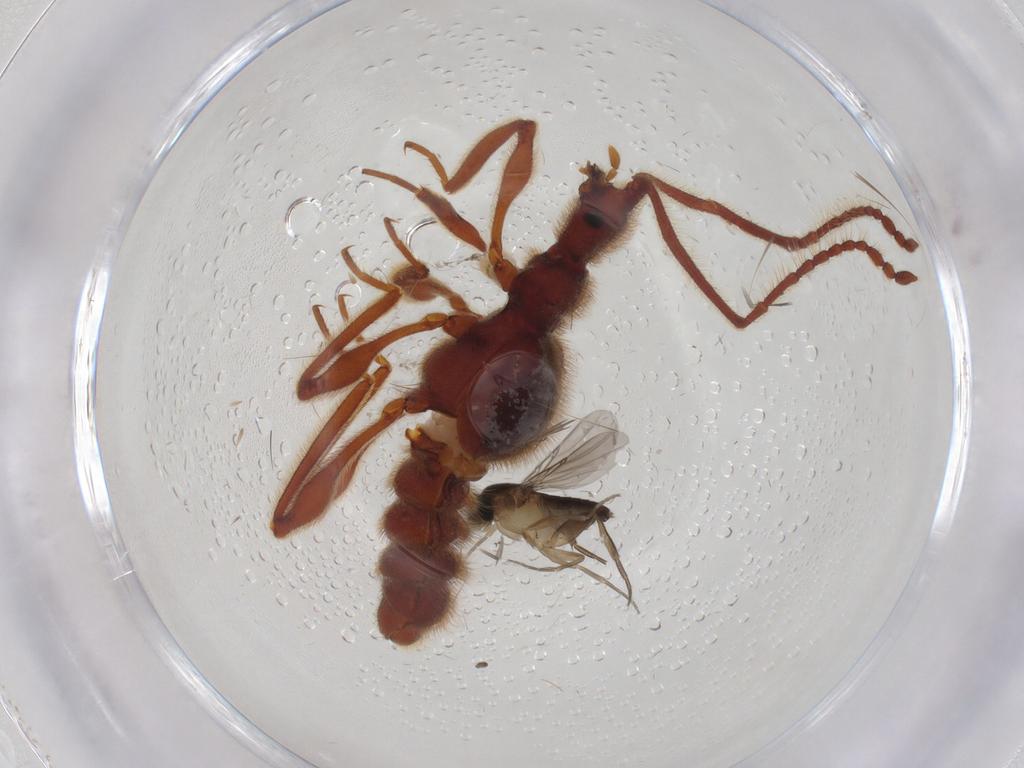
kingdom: Animalia
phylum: Arthropoda
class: Insecta
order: Diptera
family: Phoridae
